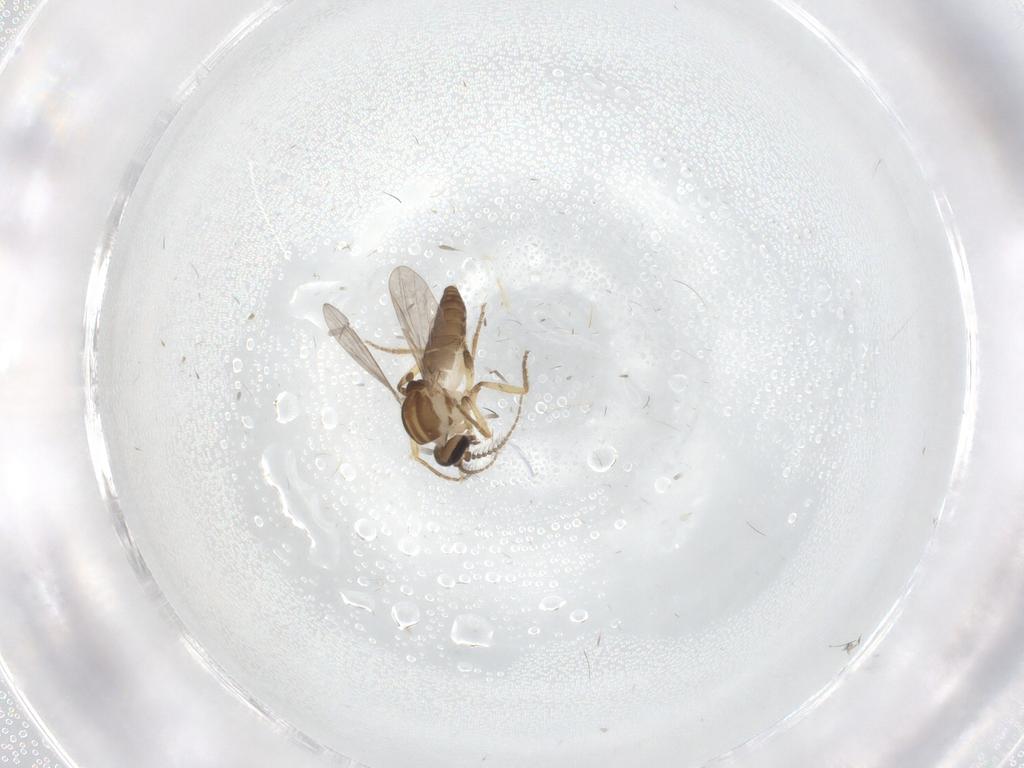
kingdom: Animalia
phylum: Arthropoda
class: Insecta
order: Diptera
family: Ceratopogonidae
